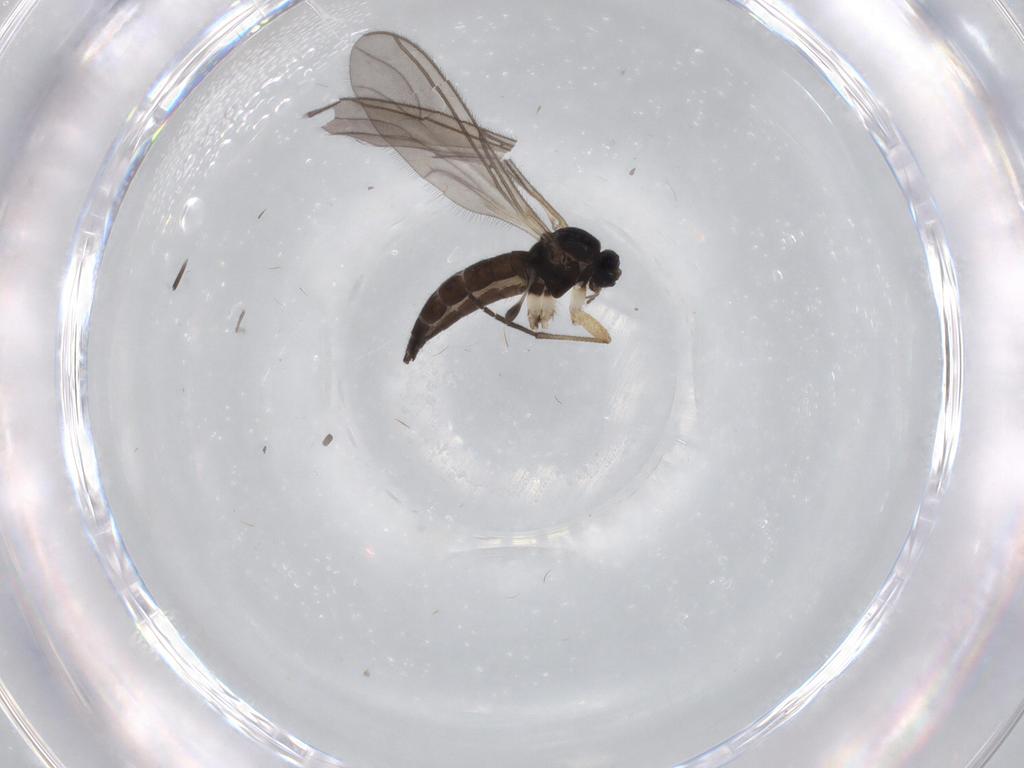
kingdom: Animalia
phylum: Arthropoda
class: Insecta
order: Diptera
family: Sciaridae
